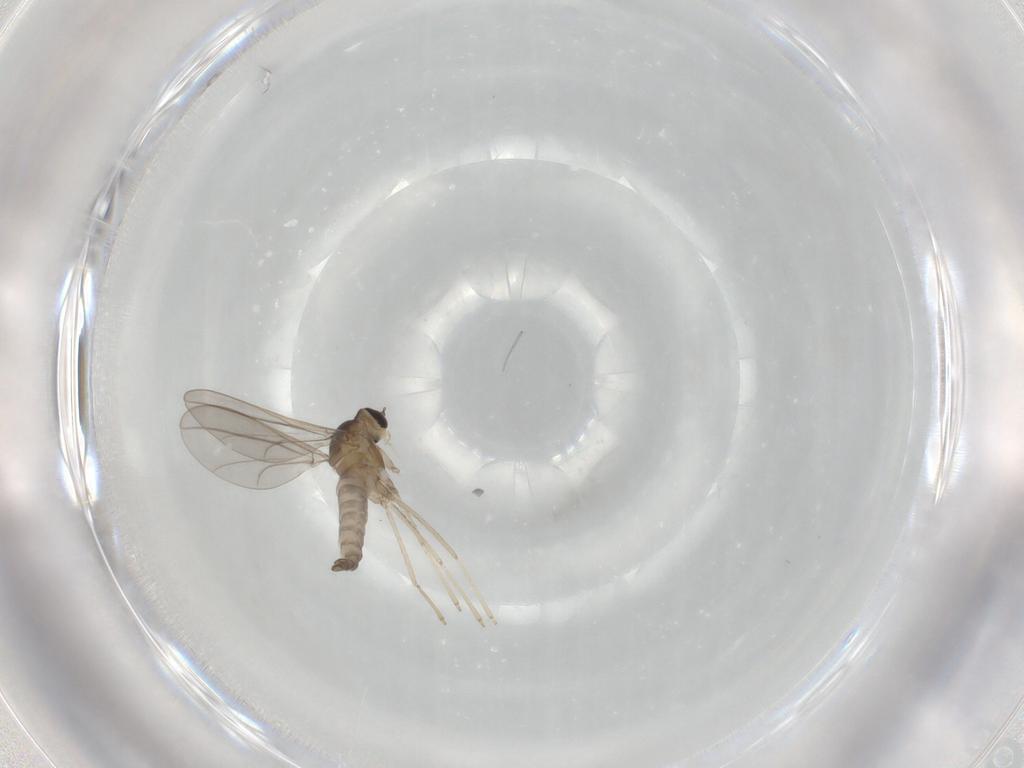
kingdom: Animalia
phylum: Arthropoda
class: Insecta
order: Diptera
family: Cecidomyiidae
